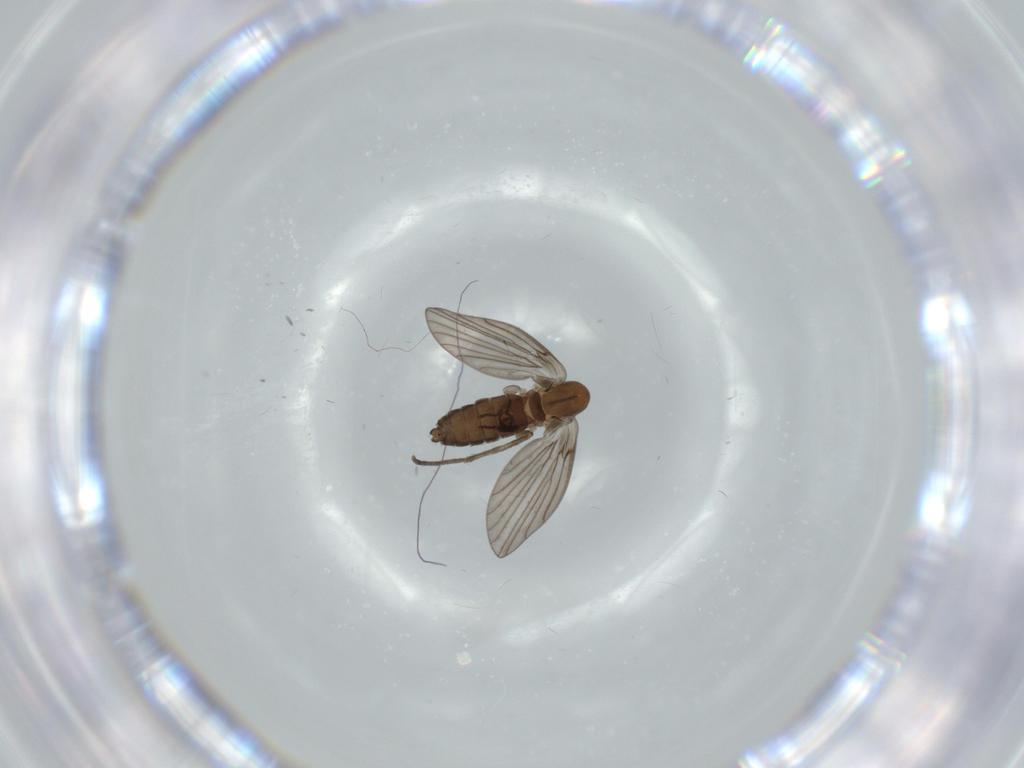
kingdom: Animalia
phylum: Arthropoda
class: Insecta
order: Diptera
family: Psychodidae
